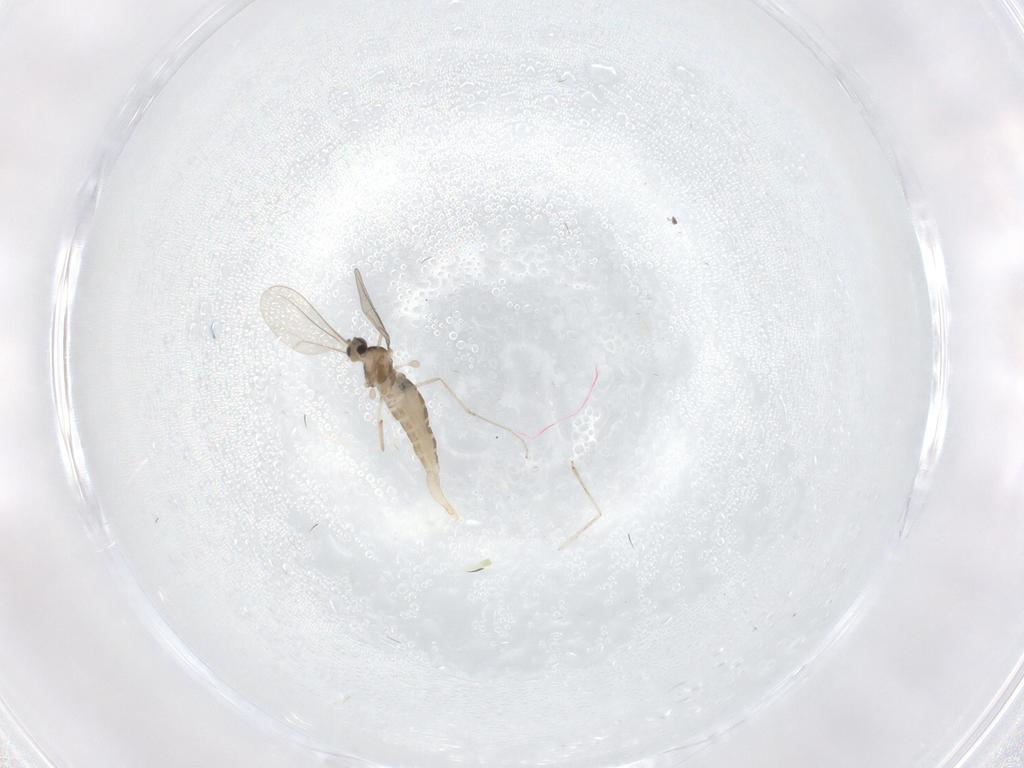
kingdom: Animalia
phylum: Arthropoda
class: Insecta
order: Diptera
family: Cecidomyiidae
